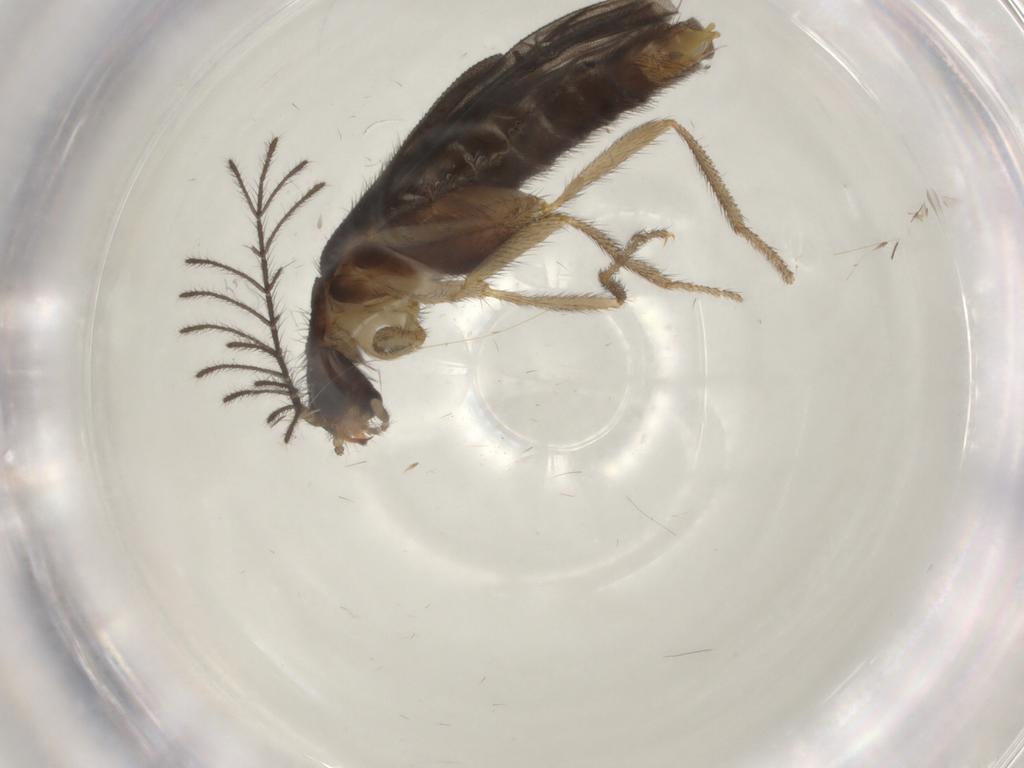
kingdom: Animalia
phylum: Arthropoda
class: Insecta
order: Coleoptera
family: Phengodidae
